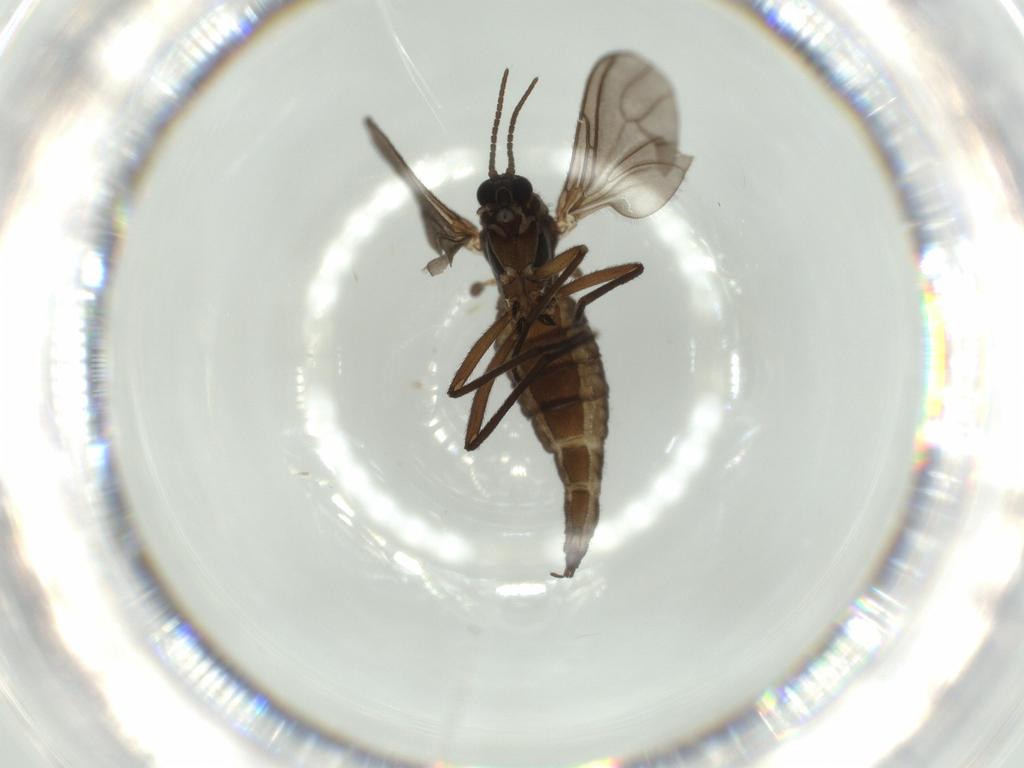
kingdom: Animalia
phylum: Arthropoda
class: Insecta
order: Diptera
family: Sciaridae
